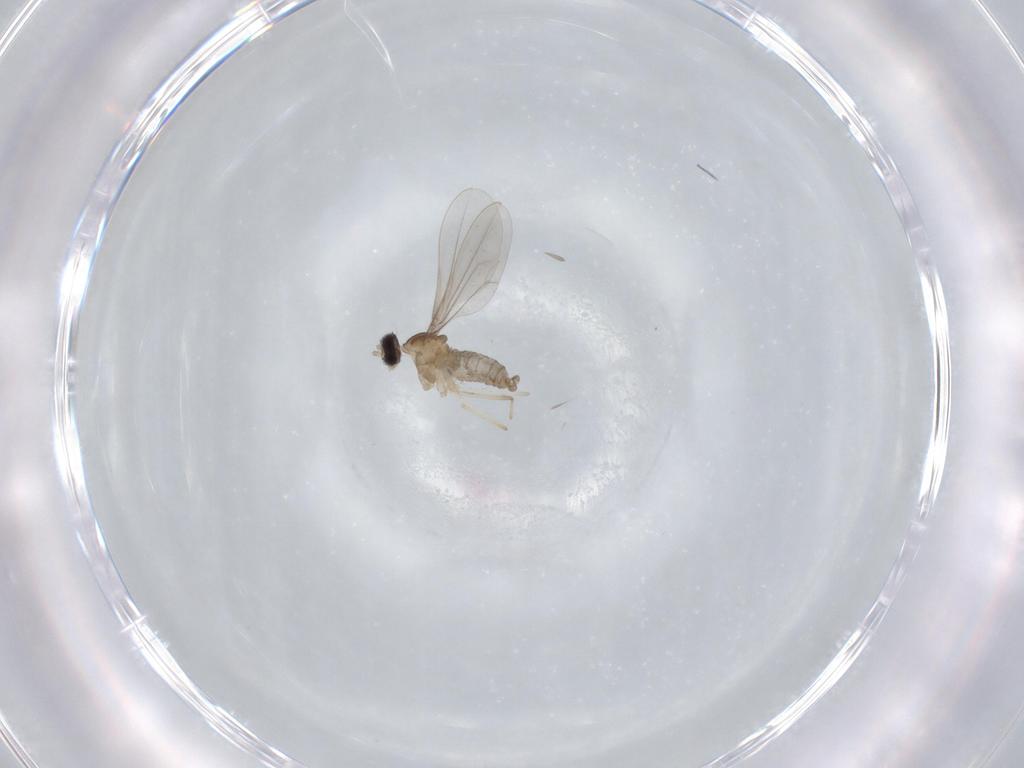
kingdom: Animalia
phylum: Arthropoda
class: Insecta
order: Diptera
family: Cecidomyiidae
